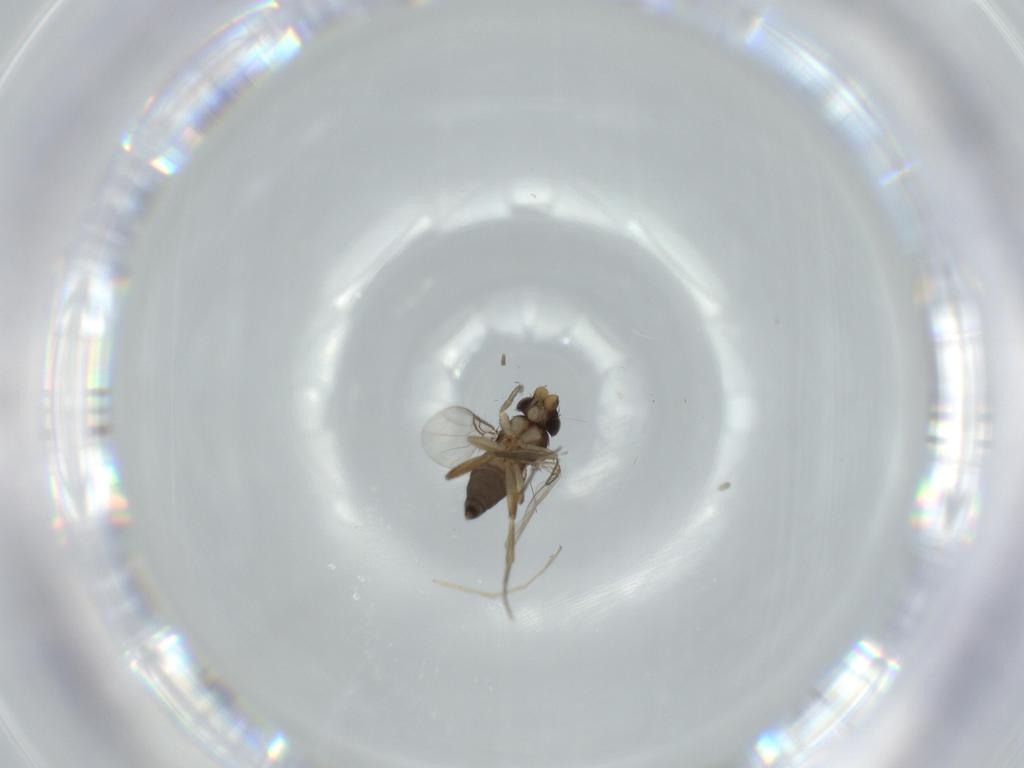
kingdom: Animalia
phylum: Arthropoda
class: Insecta
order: Diptera
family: Phoridae
